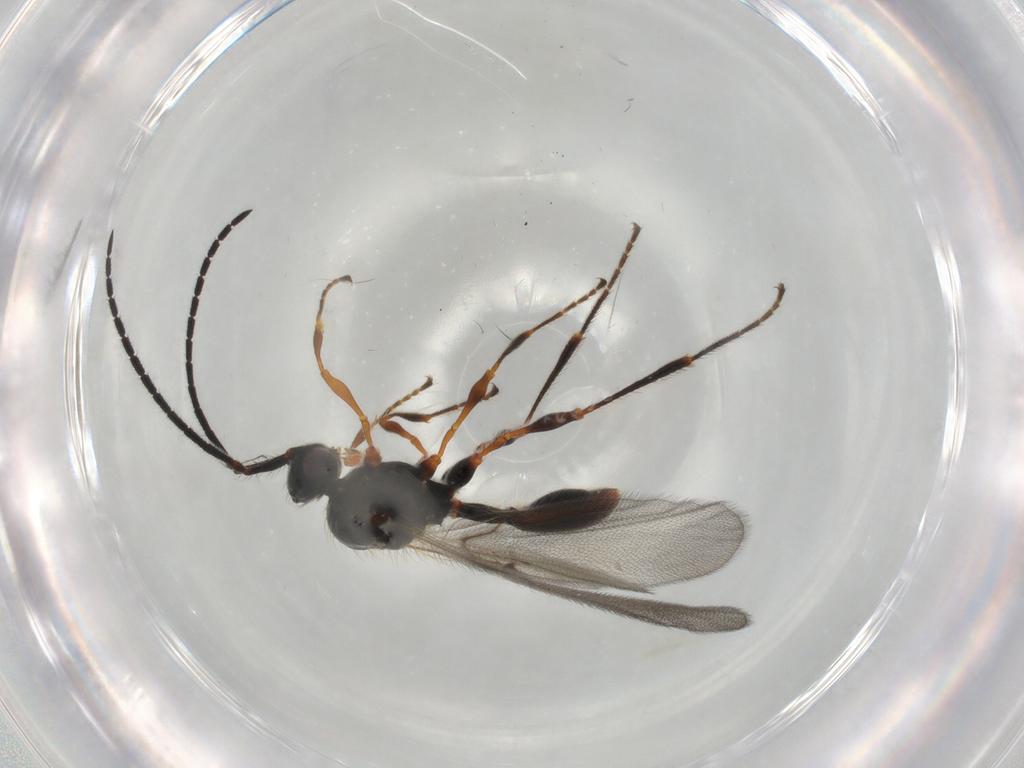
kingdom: Animalia
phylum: Arthropoda
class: Insecta
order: Hymenoptera
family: Diapriidae
